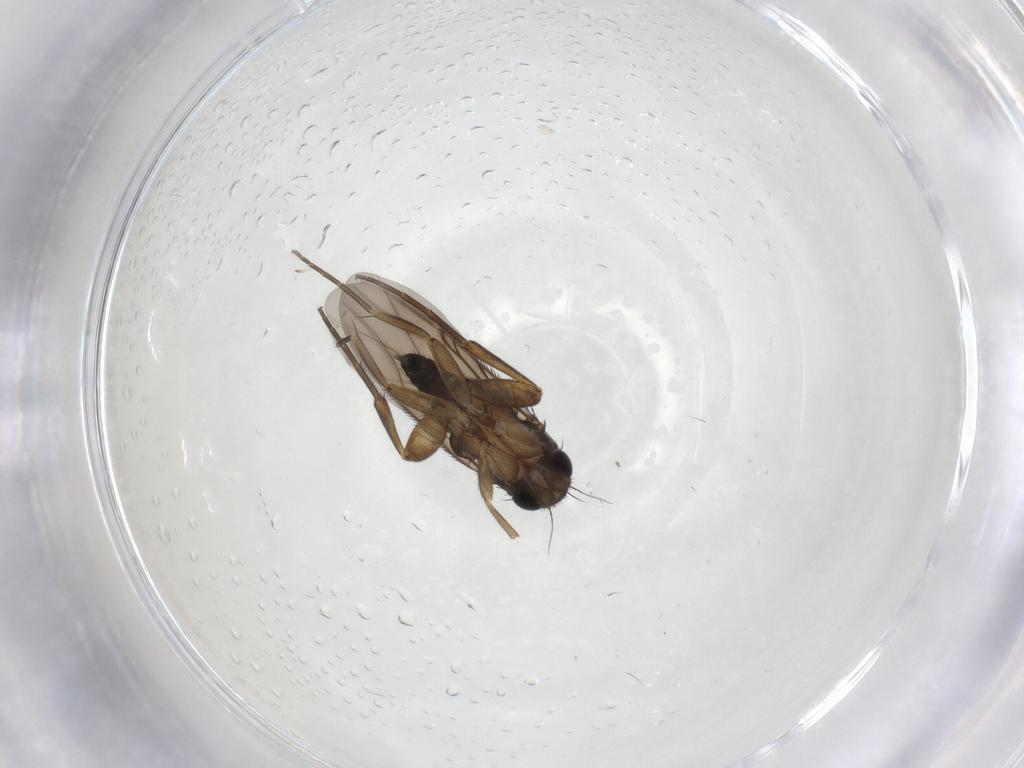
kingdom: Animalia
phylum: Arthropoda
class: Insecta
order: Diptera
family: Phoridae
